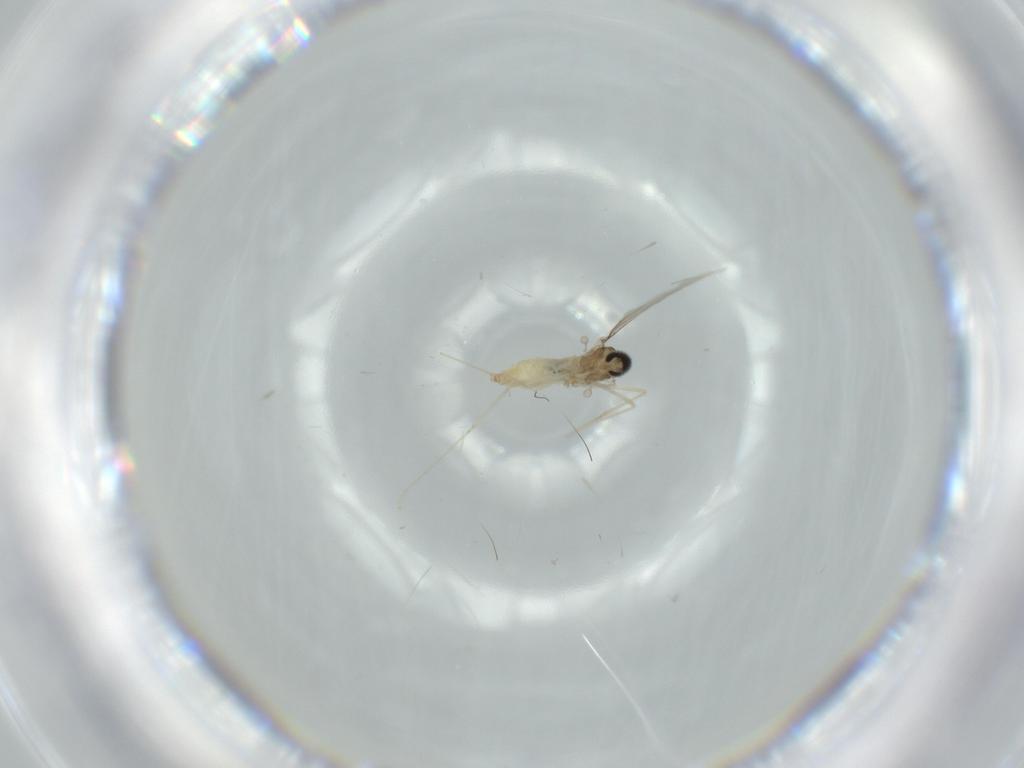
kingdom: Animalia
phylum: Arthropoda
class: Insecta
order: Diptera
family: Cecidomyiidae
